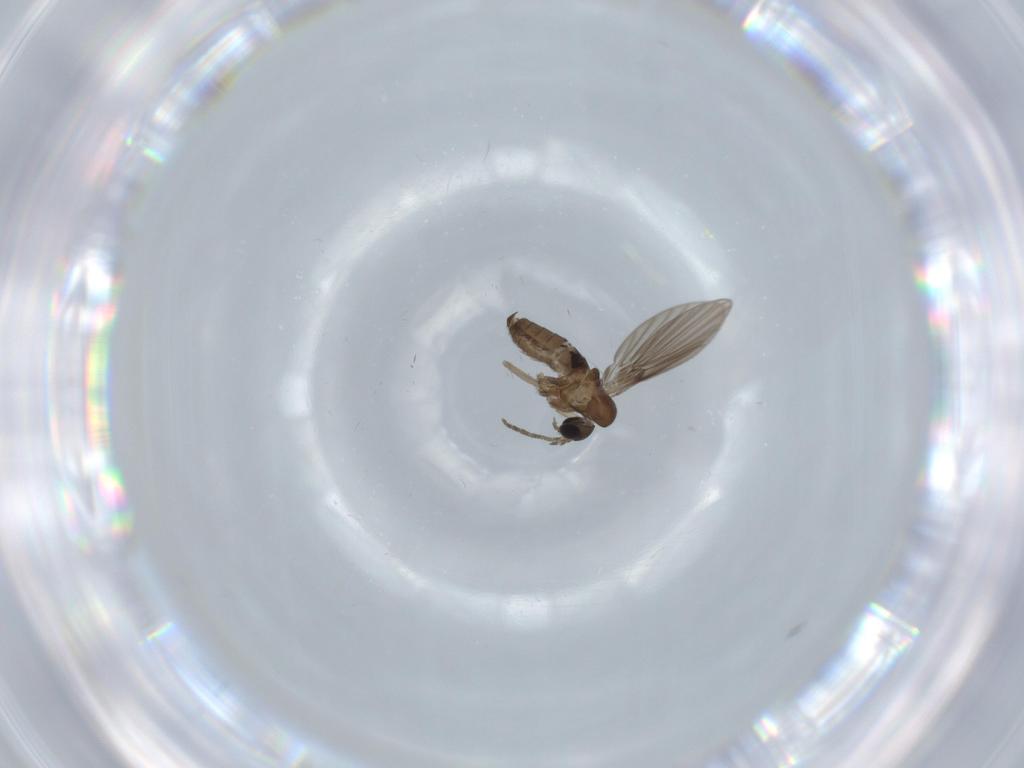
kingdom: Animalia
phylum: Arthropoda
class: Insecta
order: Diptera
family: Psychodidae
